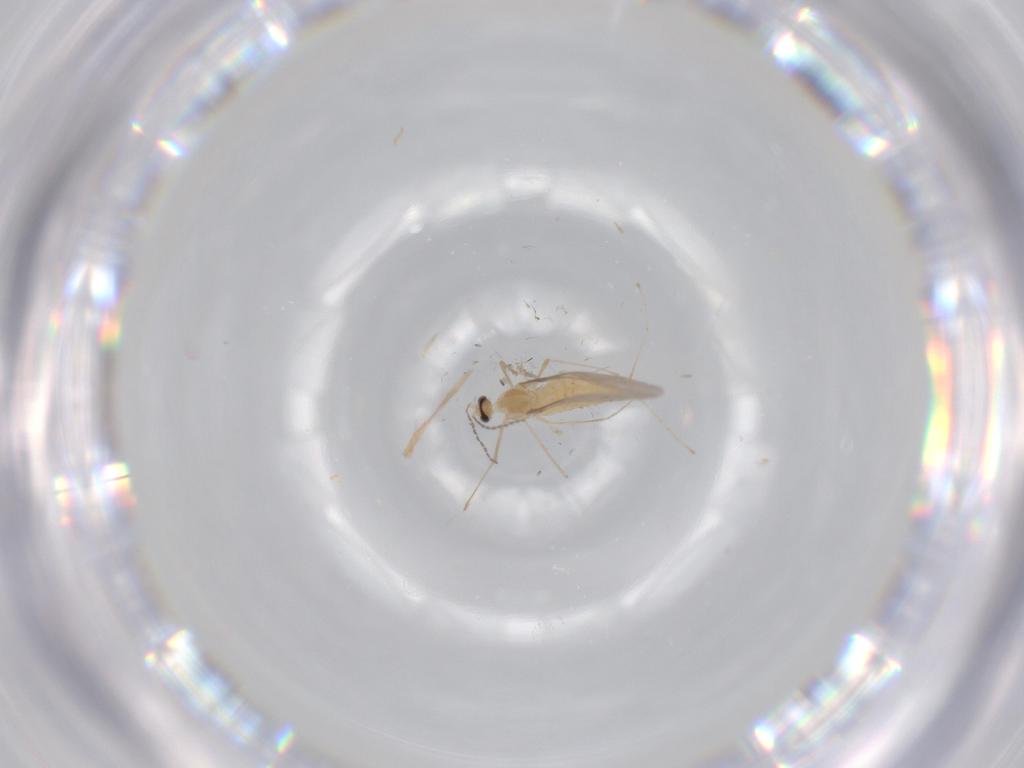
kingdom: Animalia
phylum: Arthropoda
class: Insecta
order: Diptera
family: Cecidomyiidae
